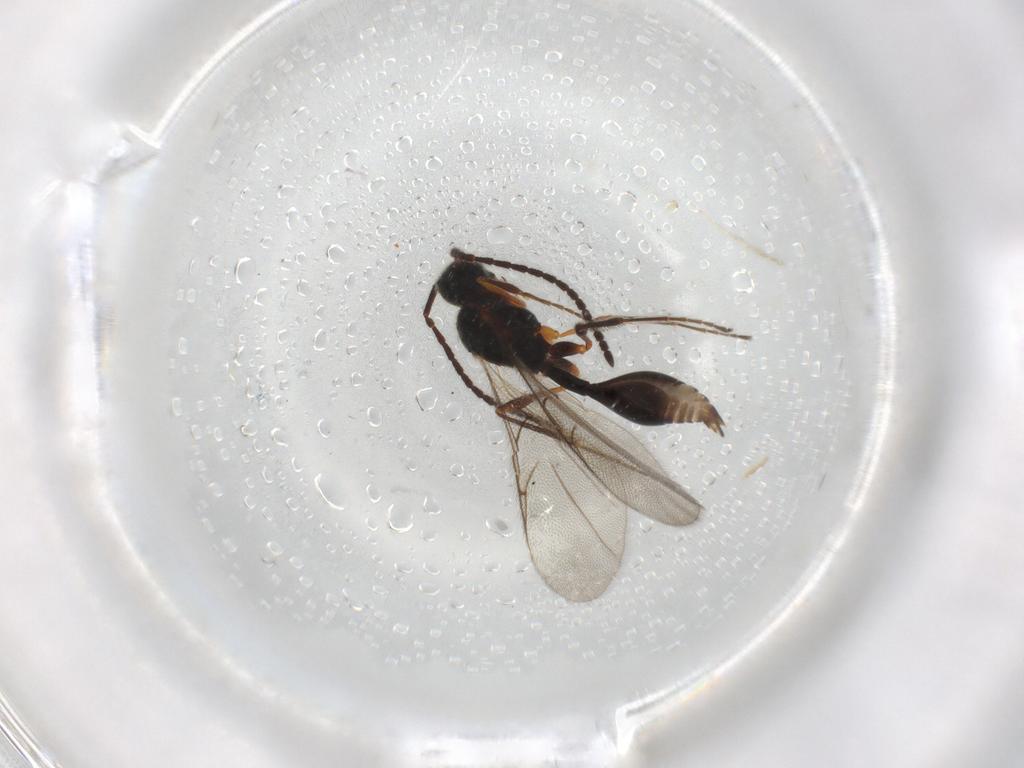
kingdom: Animalia
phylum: Arthropoda
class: Insecta
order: Hymenoptera
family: Diapriidae
